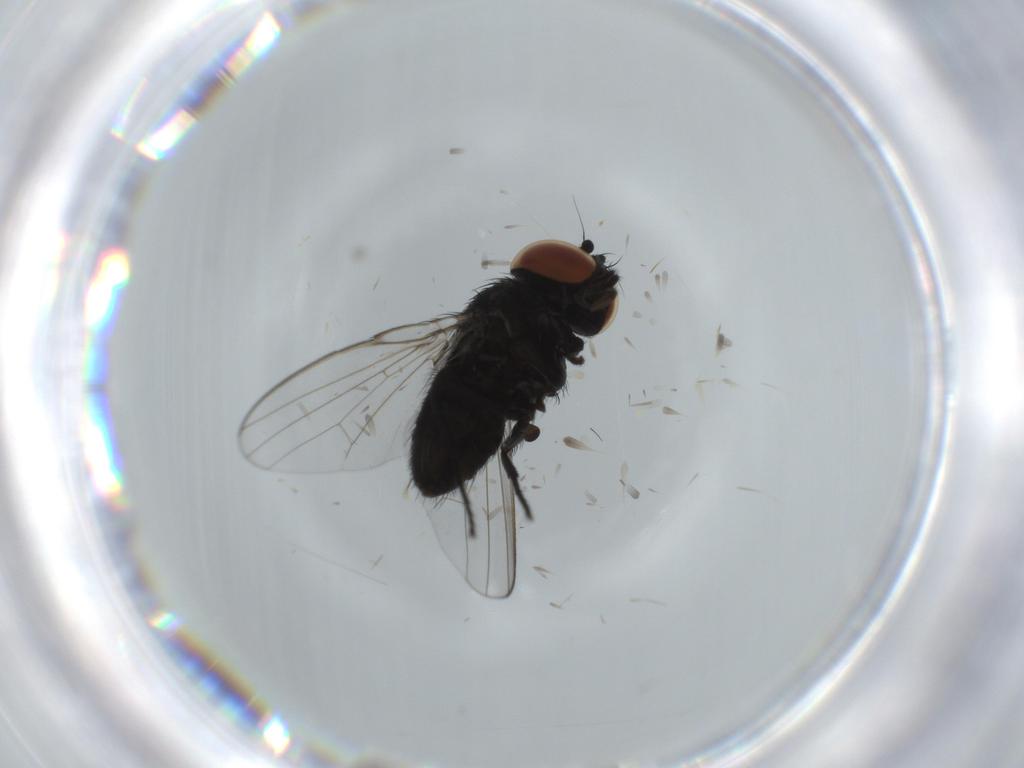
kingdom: Animalia
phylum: Arthropoda
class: Insecta
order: Diptera
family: Milichiidae
